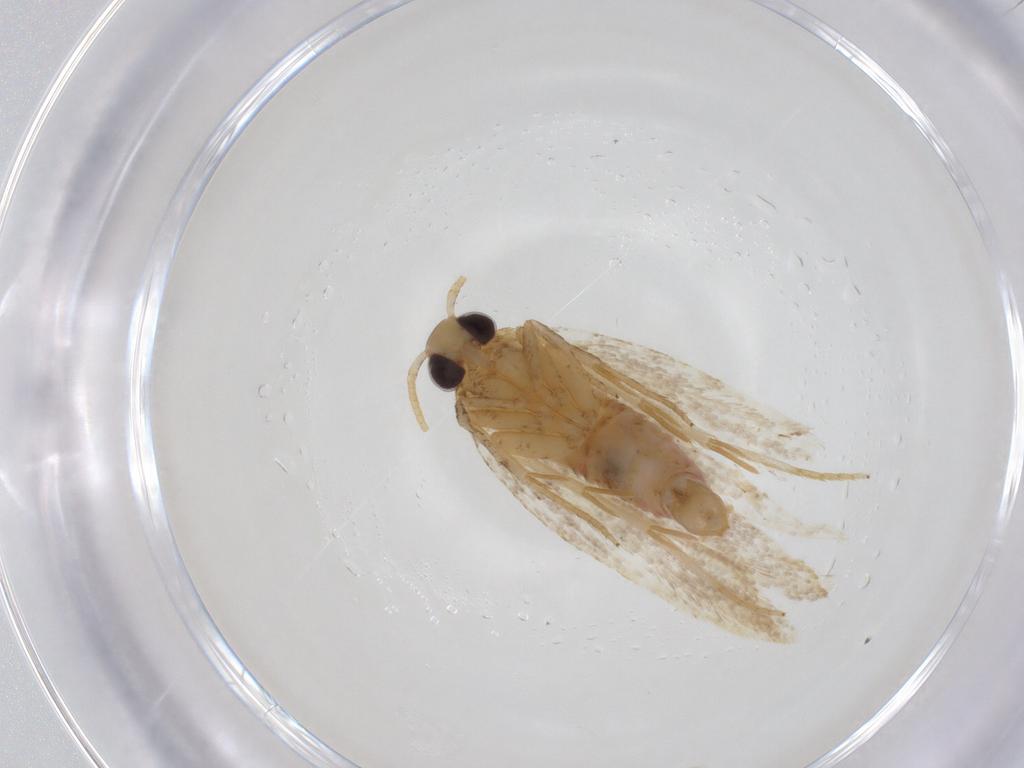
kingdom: Animalia
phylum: Arthropoda
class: Insecta
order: Lepidoptera
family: Oecophoridae
